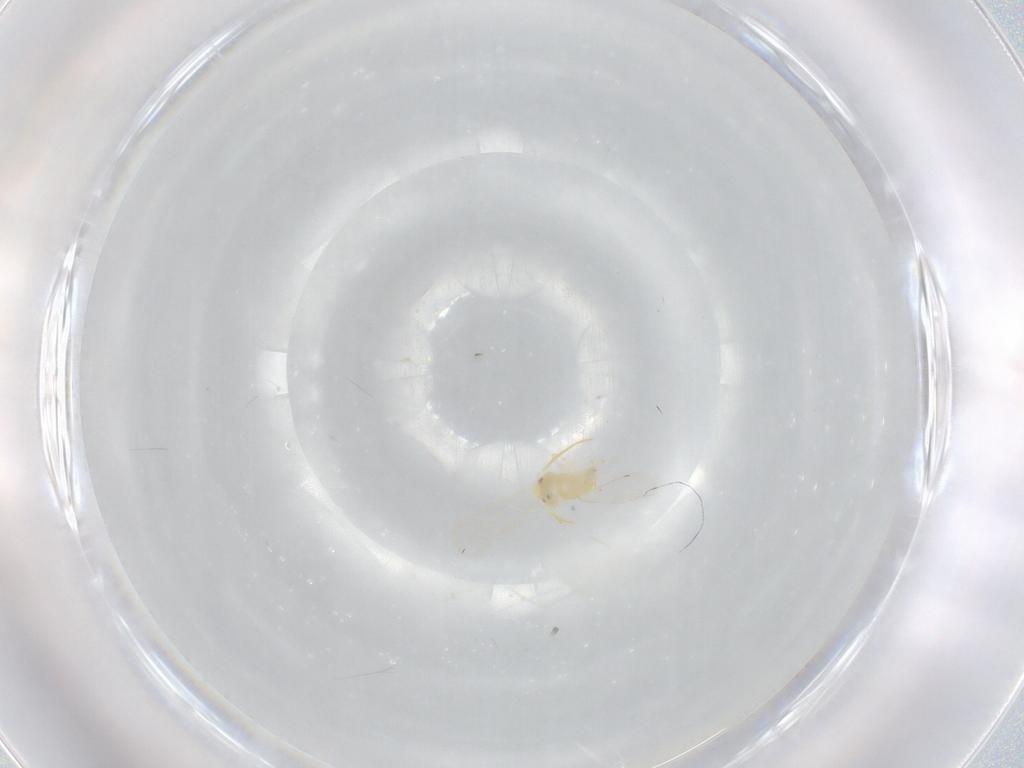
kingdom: Animalia
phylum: Arthropoda
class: Insecta
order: Hemiptera
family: Aleyrodidae
